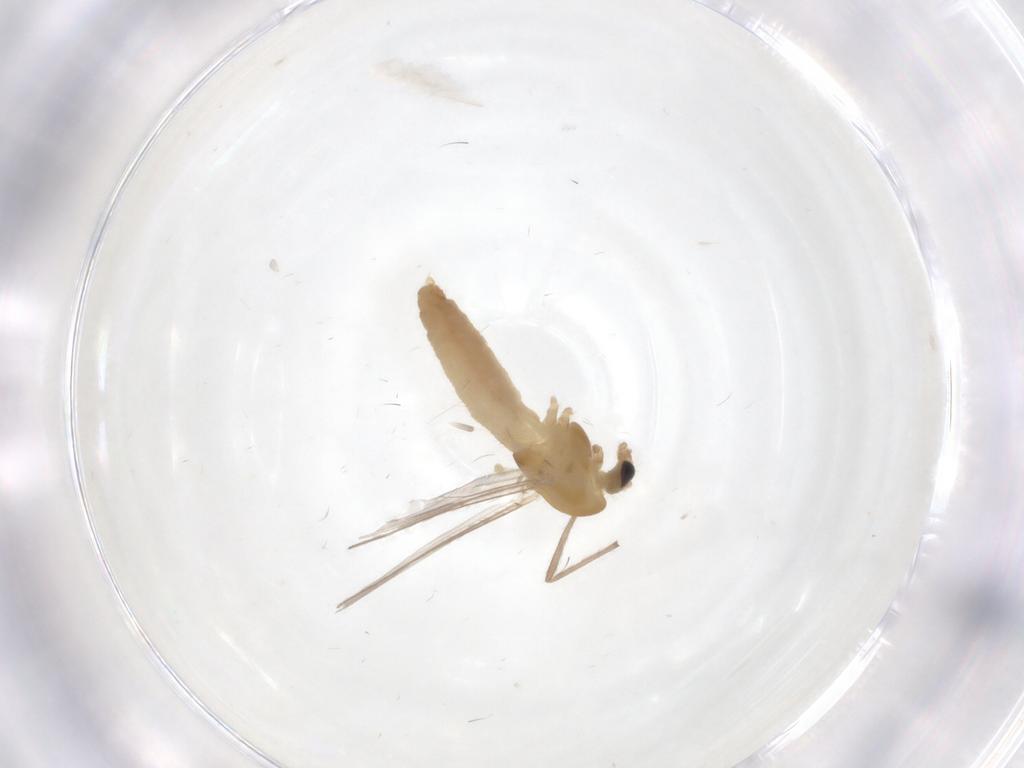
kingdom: Animalia
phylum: Arthropoda
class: Insecta
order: Diptera
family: Chloropidae
